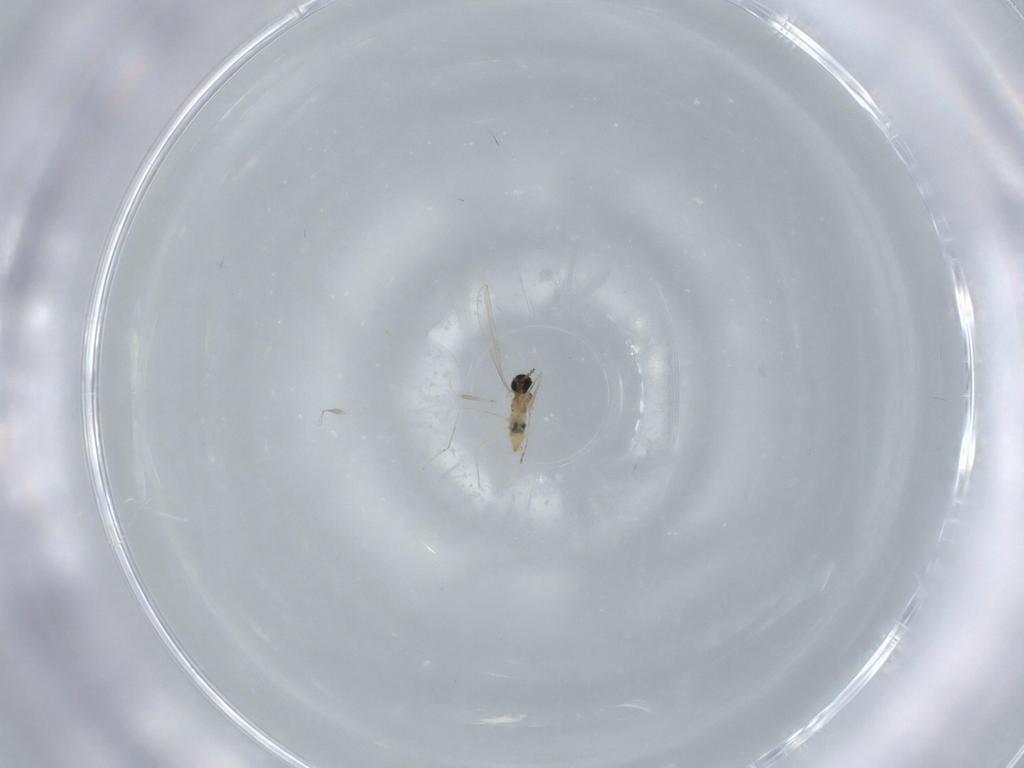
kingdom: Animalia
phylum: Arthropoda
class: Insecta
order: Diptera
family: Cecidomyiidae
